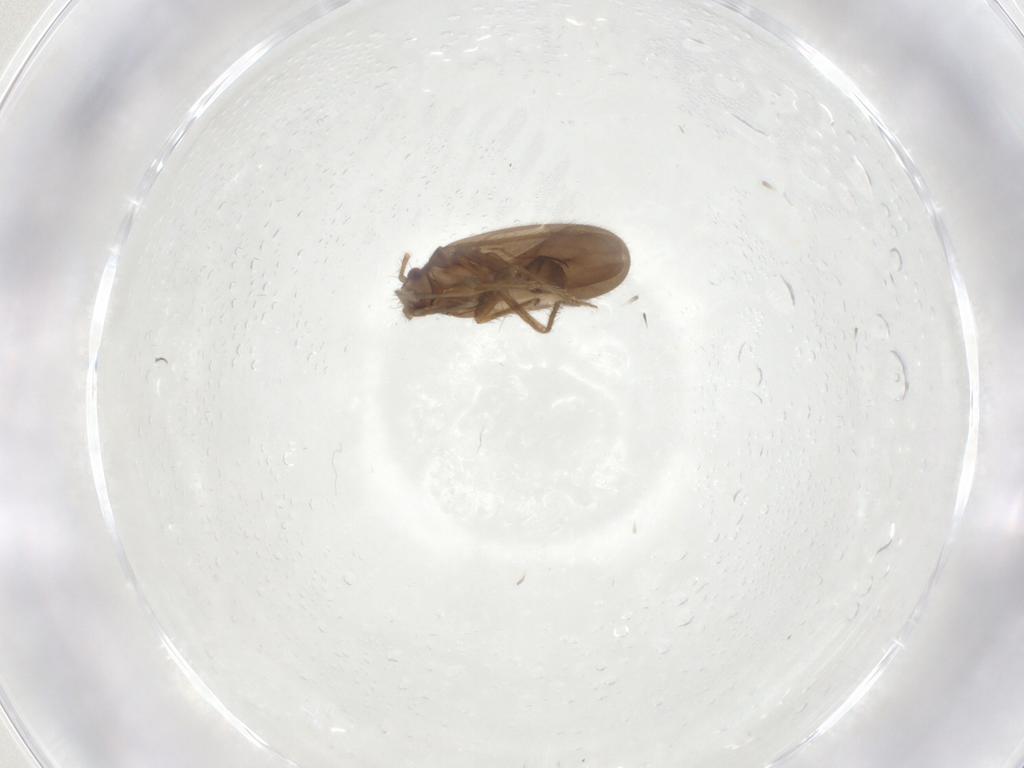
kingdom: Animalia
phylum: Arthropoda
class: Insecta
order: Hemiptera
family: Ceratocombidae
